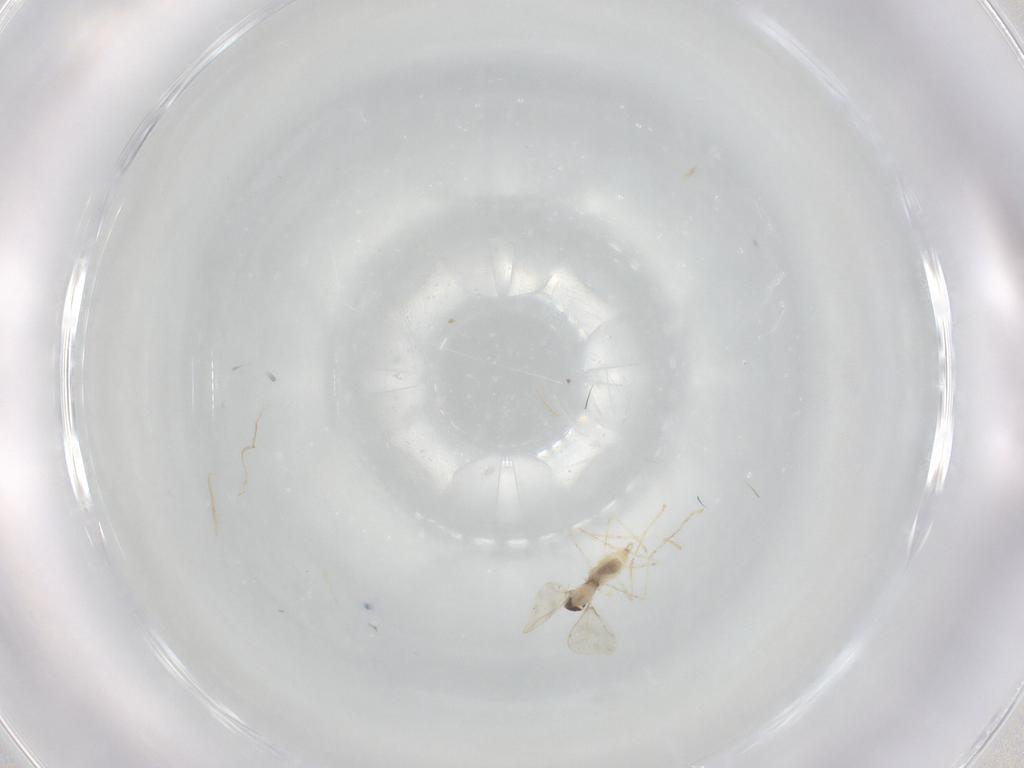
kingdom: Animalia
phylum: Arthropoda
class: Insecta
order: Diptera
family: Cecidomyiidae
